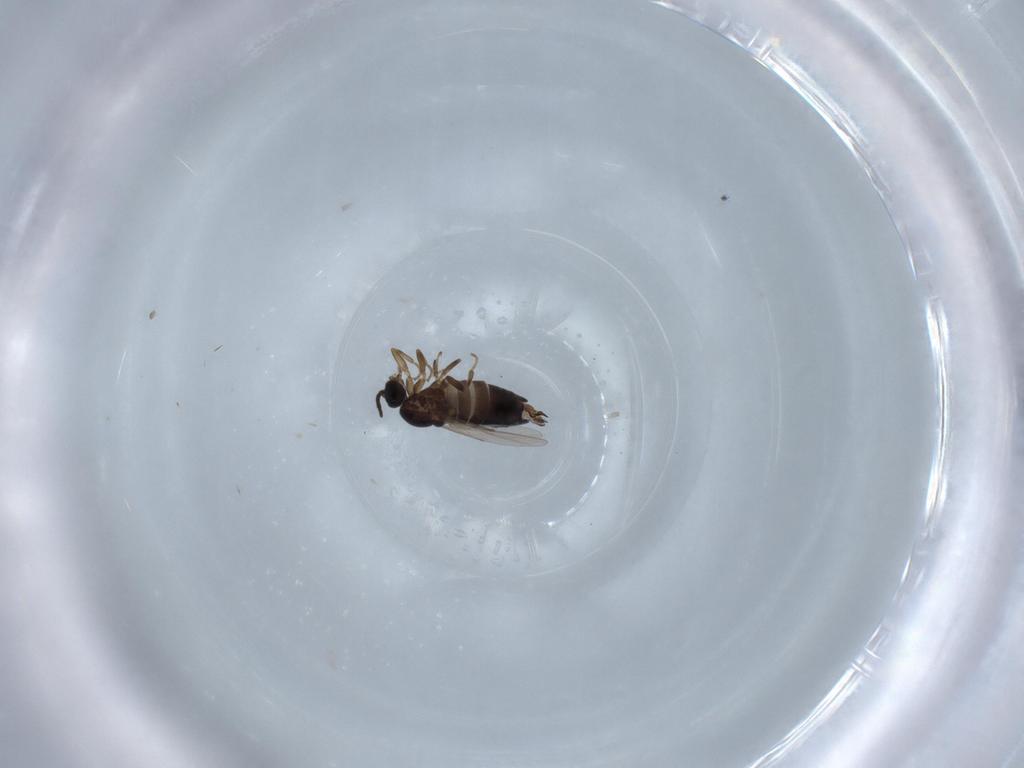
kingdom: Animalia
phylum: Arthropoda
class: Insecta
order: Diptera
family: Scatopsidae
